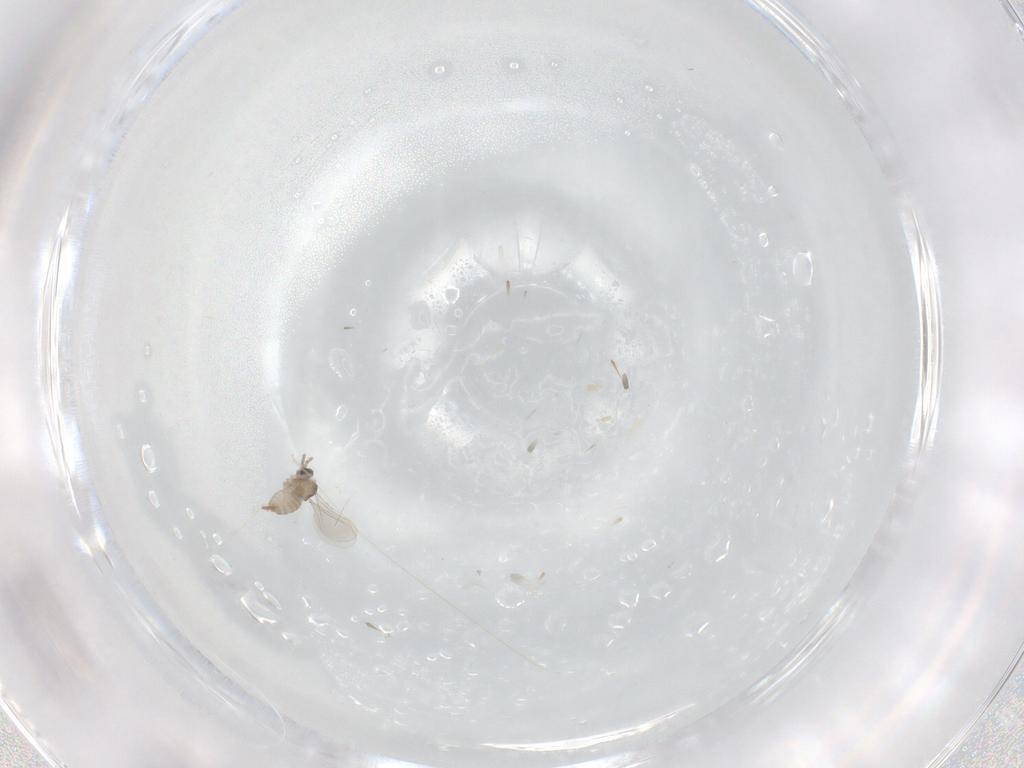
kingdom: Animalia
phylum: Arthropoda
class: Insecta
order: Diptera
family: Cecidomyiidae
